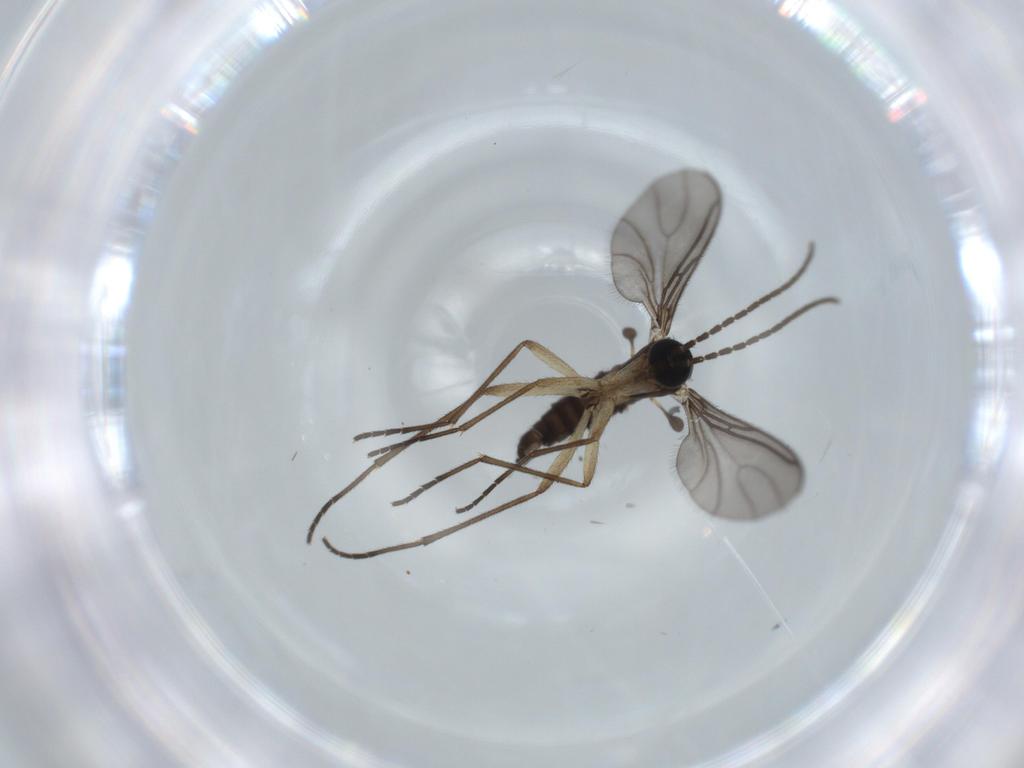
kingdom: Animalia
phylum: Arthropoda
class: Insecta
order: Diptera
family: Sciaridae
